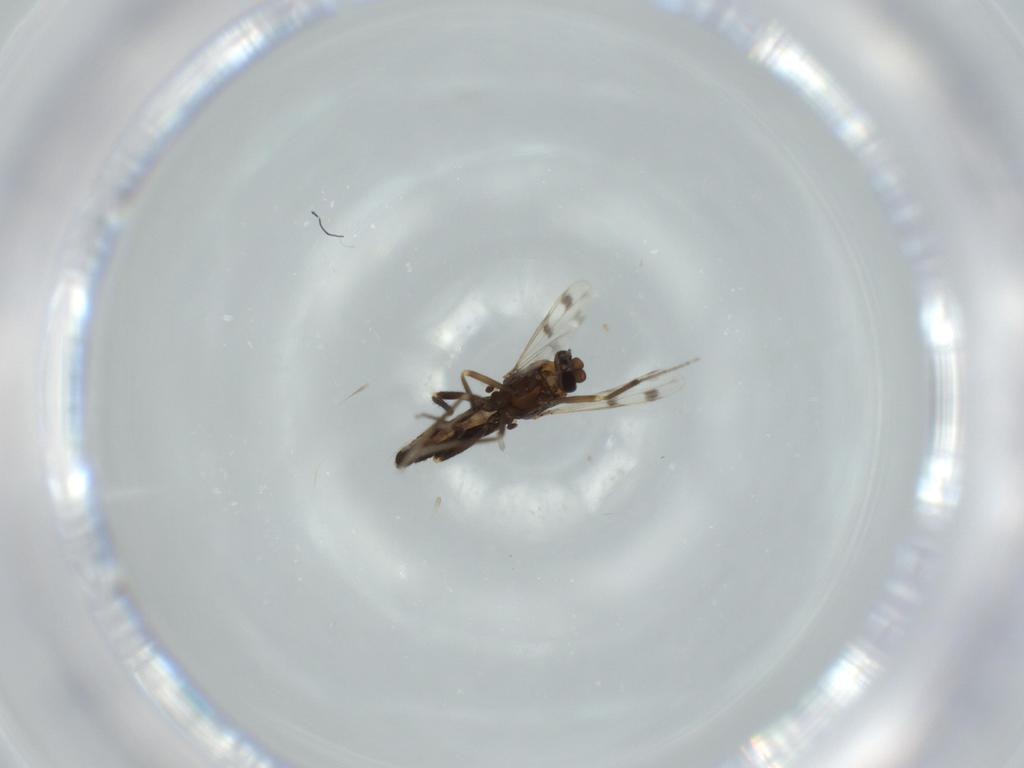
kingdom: Animalia
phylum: Arthropoda
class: Insecta
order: Diptera
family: Ceratopogonidae
